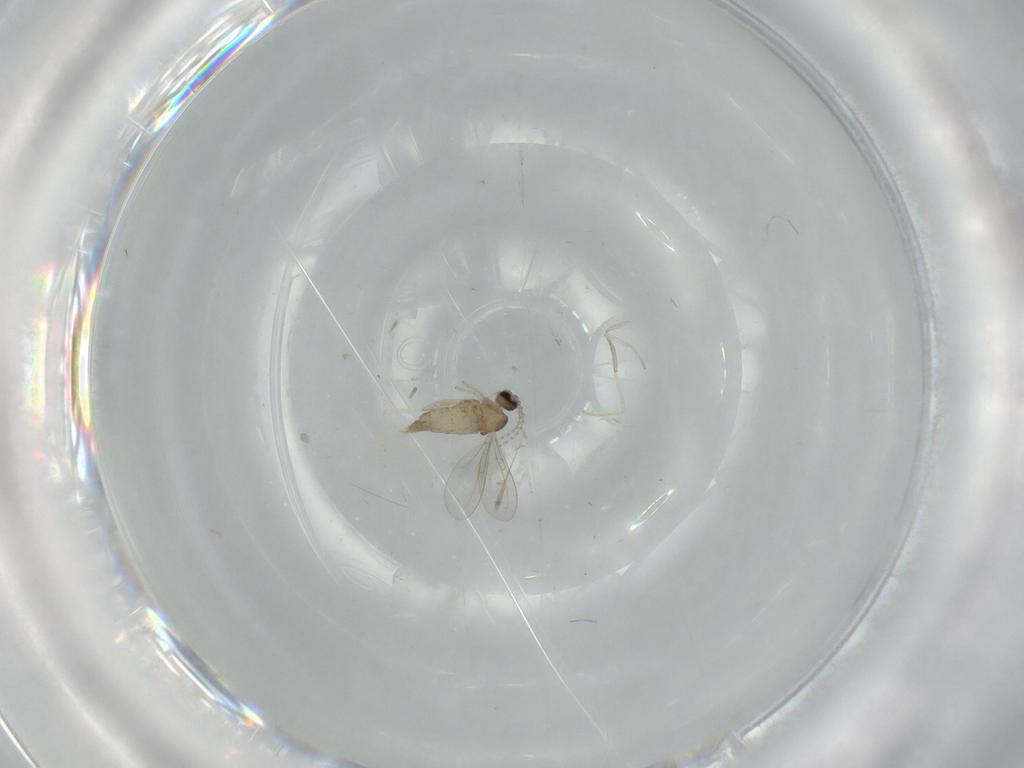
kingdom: Animalia
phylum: Arthropoda
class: Insecta
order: Diptera
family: Cecidomyiidae
